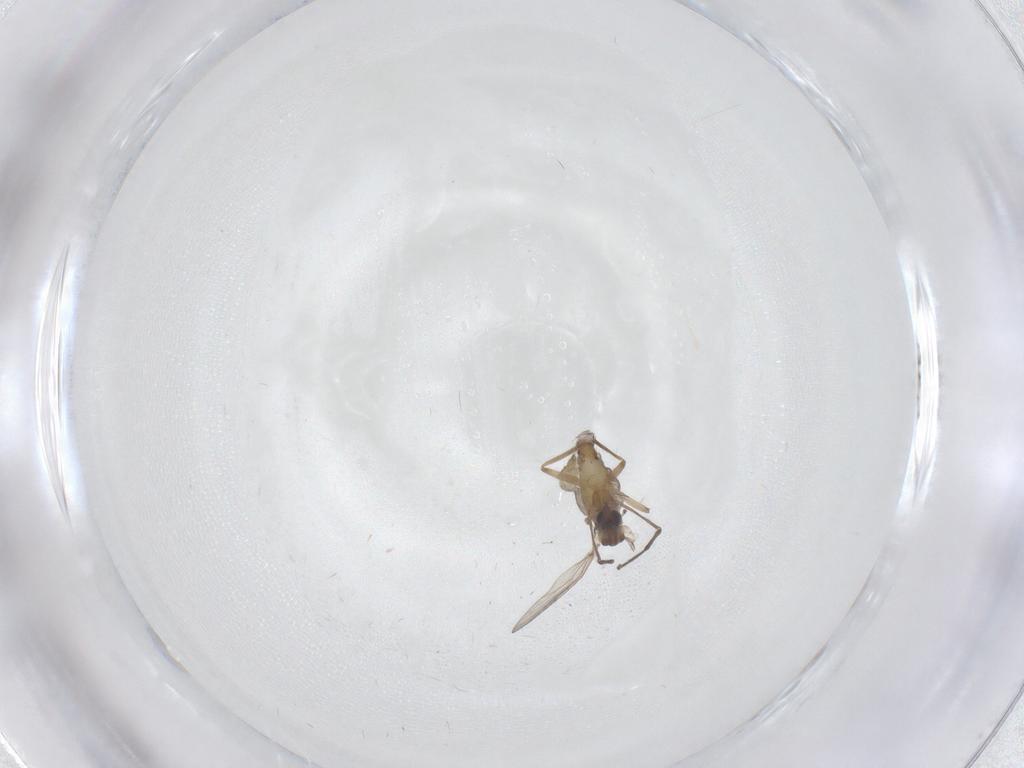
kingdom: Animalia
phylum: Arthropoda
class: Insecta
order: Diptera
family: Chironomidae
